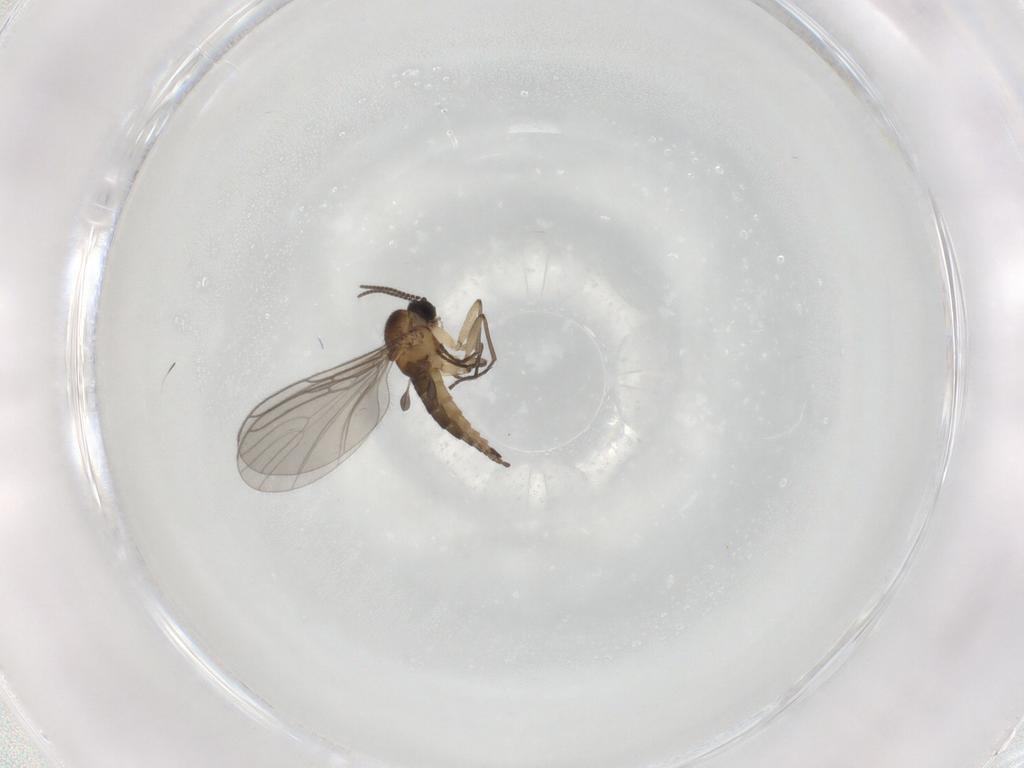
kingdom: Animalia
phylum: Arthropoda
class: Insecta
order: Diptera
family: Sciaridae
